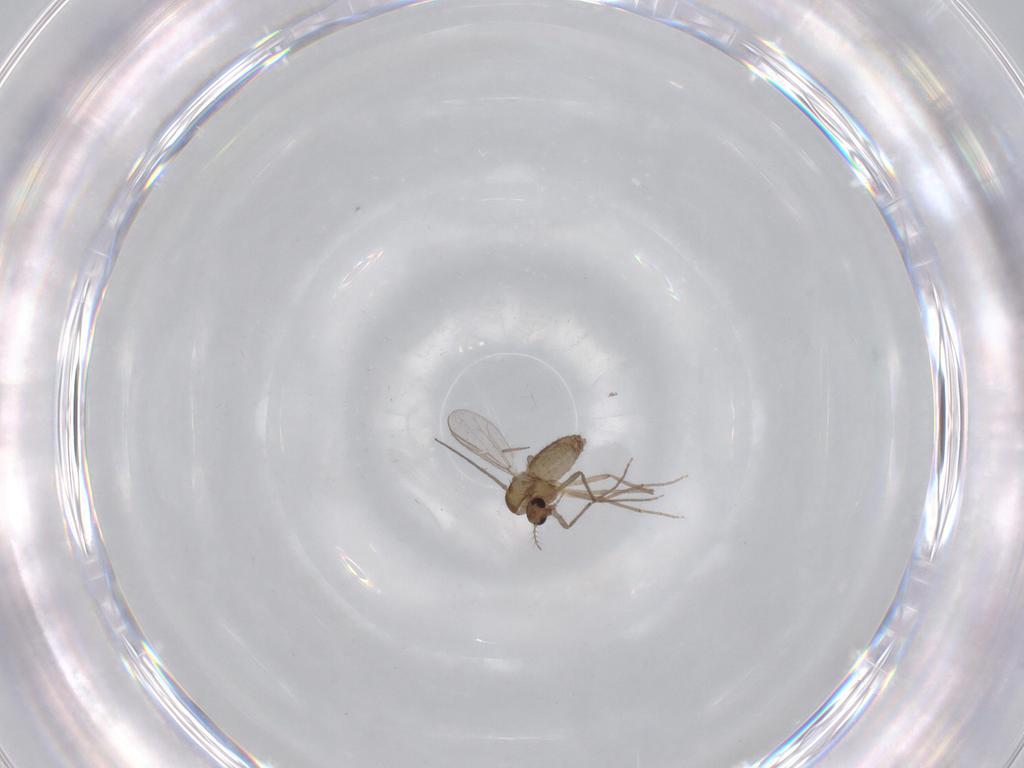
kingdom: Animalia
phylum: Arthropoda
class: Insecta
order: Diptera
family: Chironomidae
